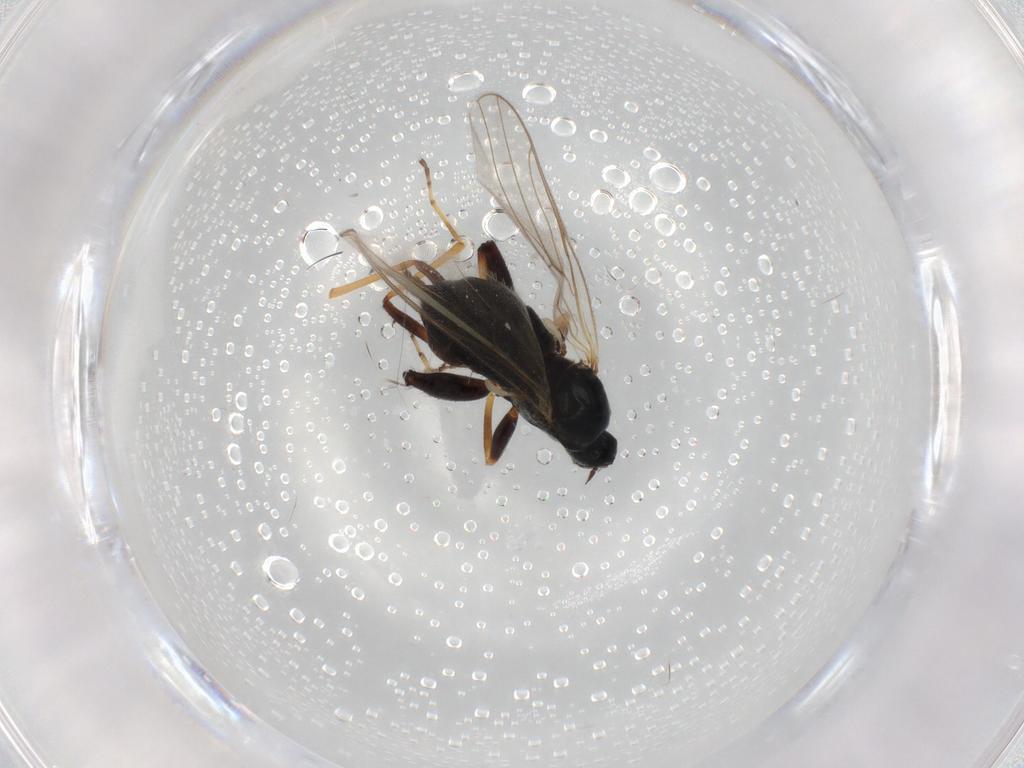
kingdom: Animalia
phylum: Arthropoda
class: Insecta
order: Diptera
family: Hybotidae
